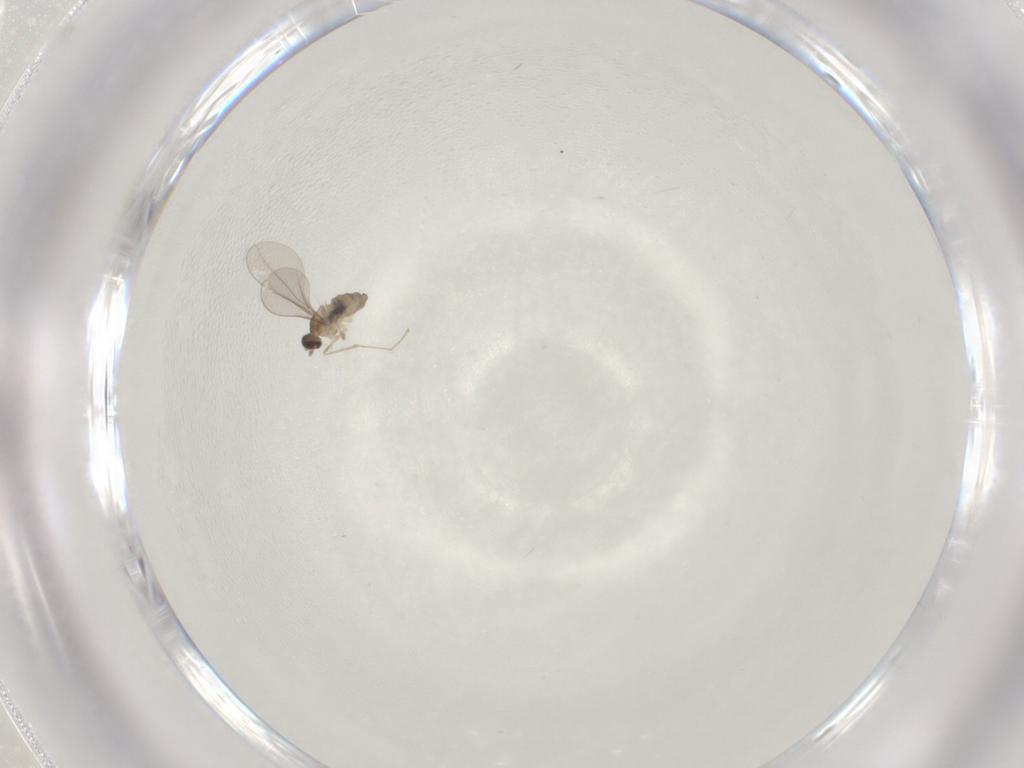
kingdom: Animalia
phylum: Arthropoda
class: Insecta
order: Diptera
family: Cecidomyiidae
